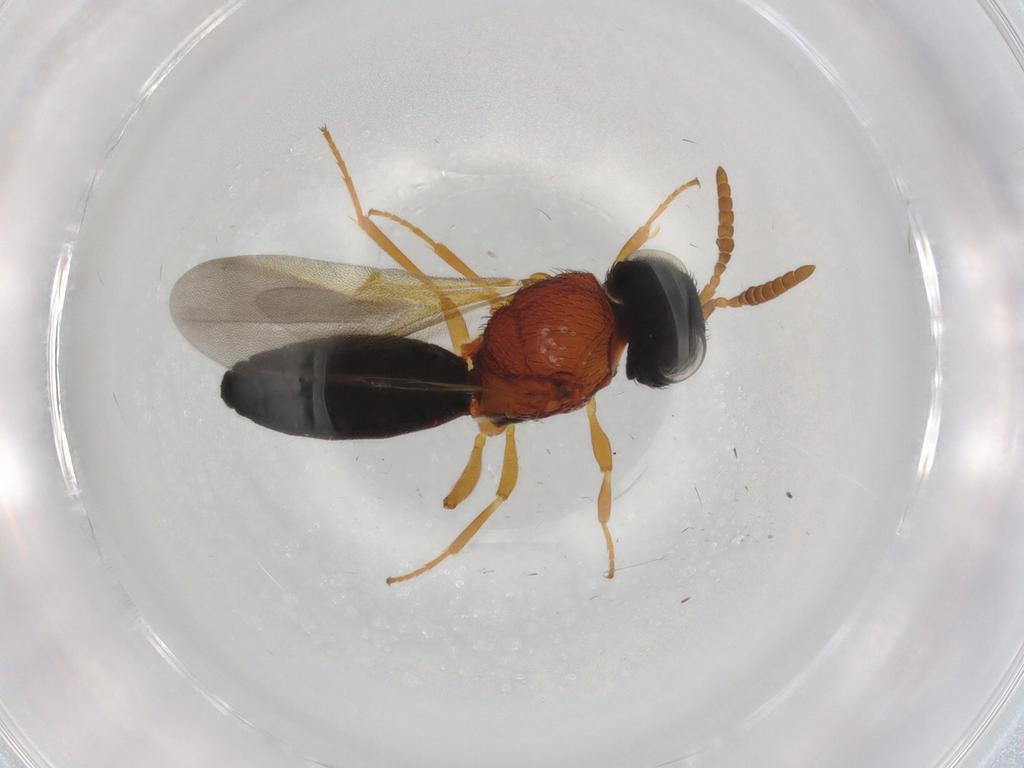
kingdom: Animalia
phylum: Arthropoda
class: Insecta
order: Hymenoptera
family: Scelionidae
